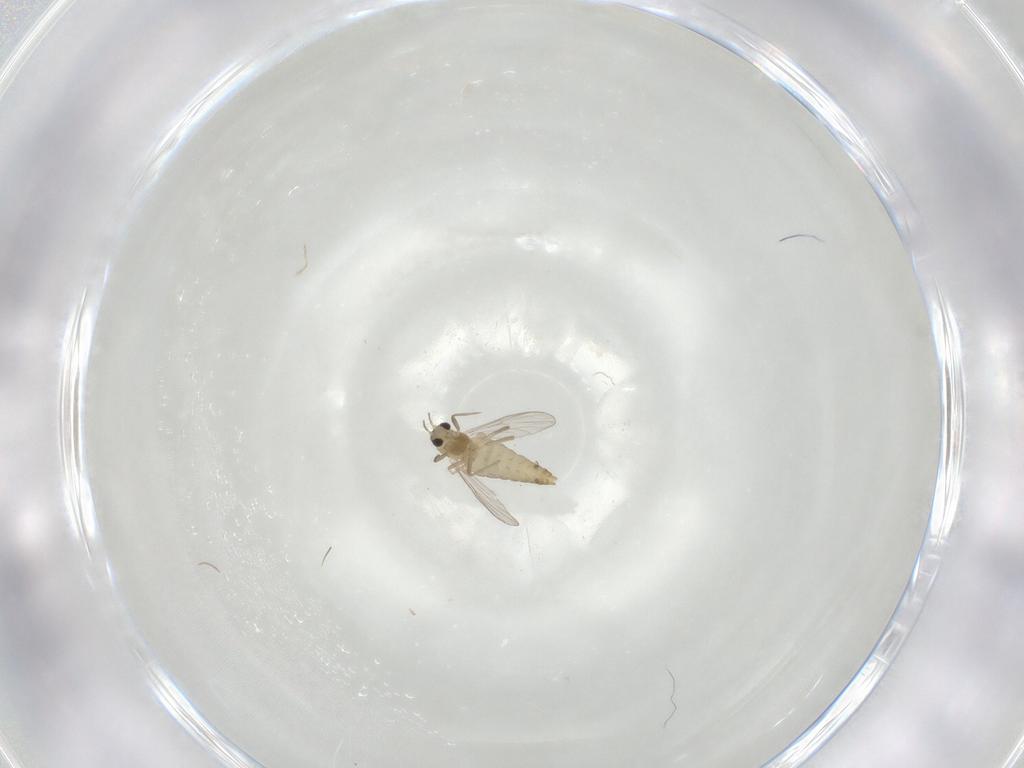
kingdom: Animalia
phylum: Arthropoda
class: Insecta
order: Diptera
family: Chironomidae
